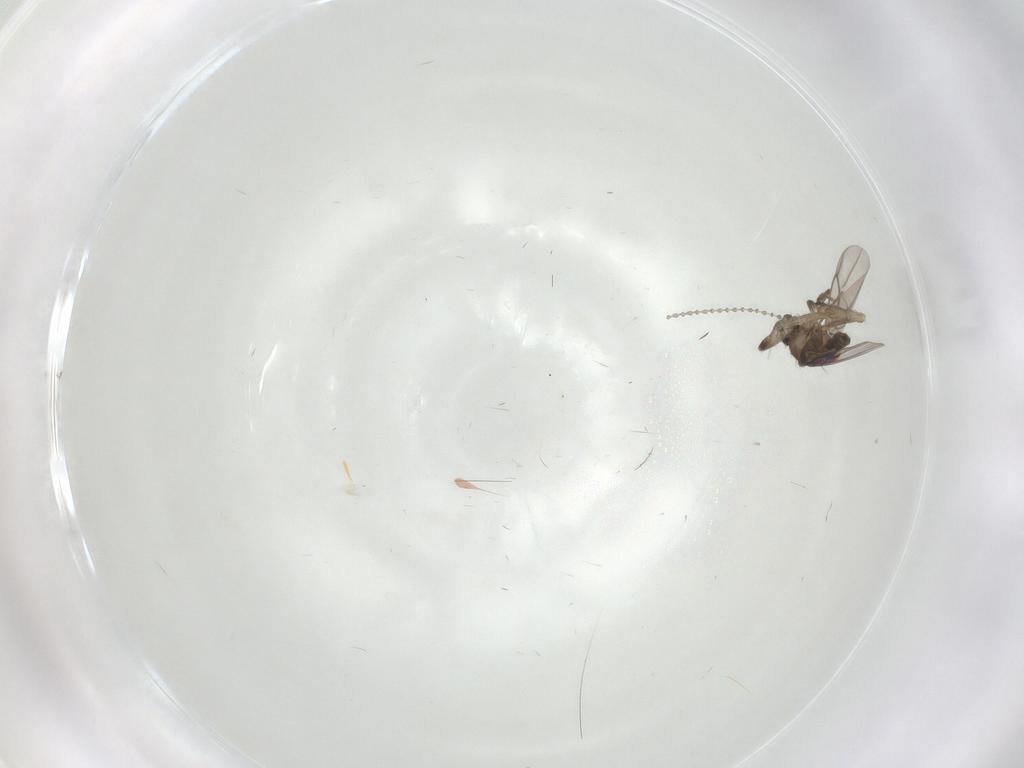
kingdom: Animalia
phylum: Arthropoda
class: Insecta
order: Diptera
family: Cecidomyiidae
